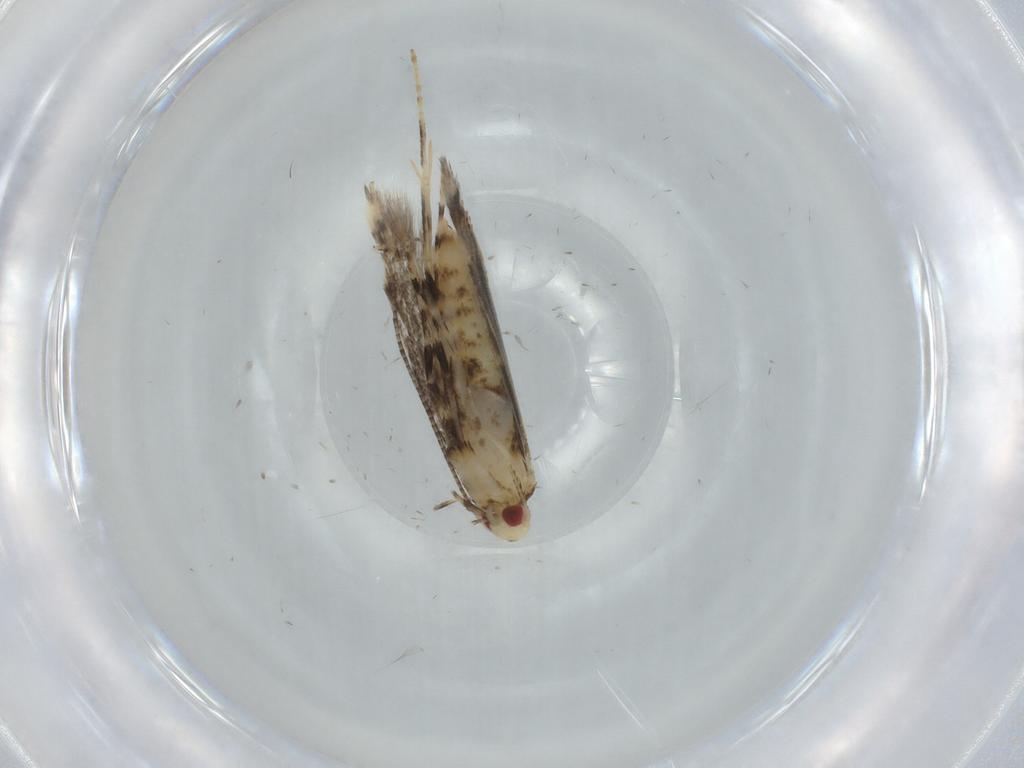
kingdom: Animalia
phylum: Arthropoda
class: Insecta
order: Lepidoptera
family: Gracillariidae
